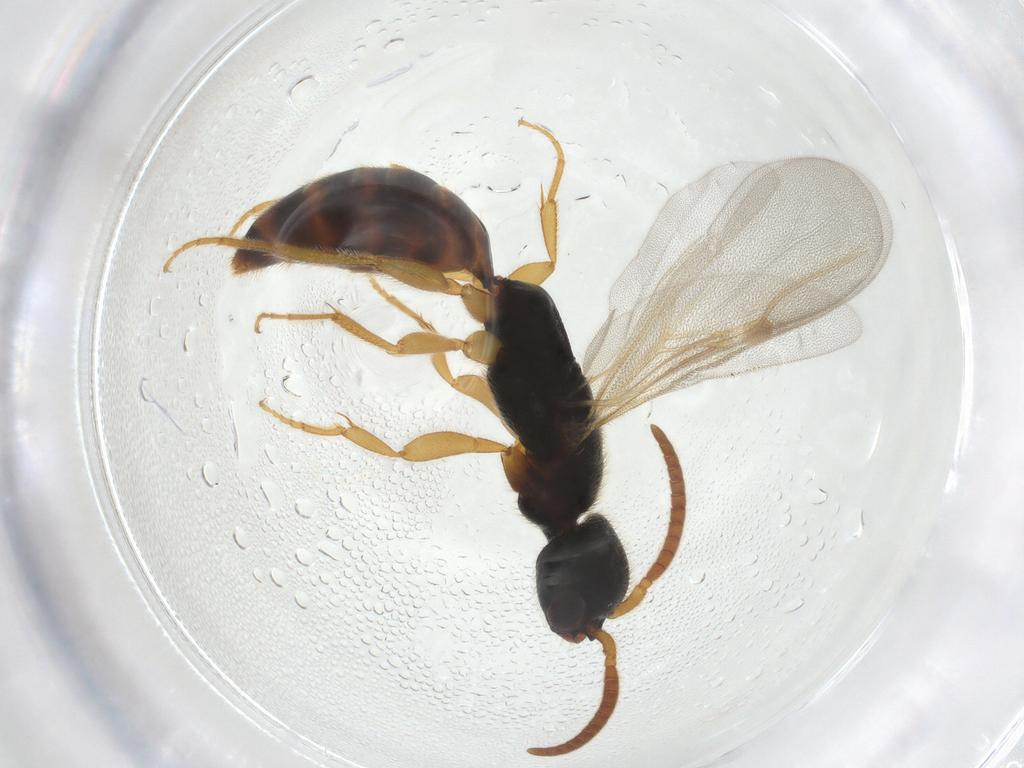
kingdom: Animalia
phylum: Arthropoda
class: Insecta
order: Hymenoptera
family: Bethylidae
